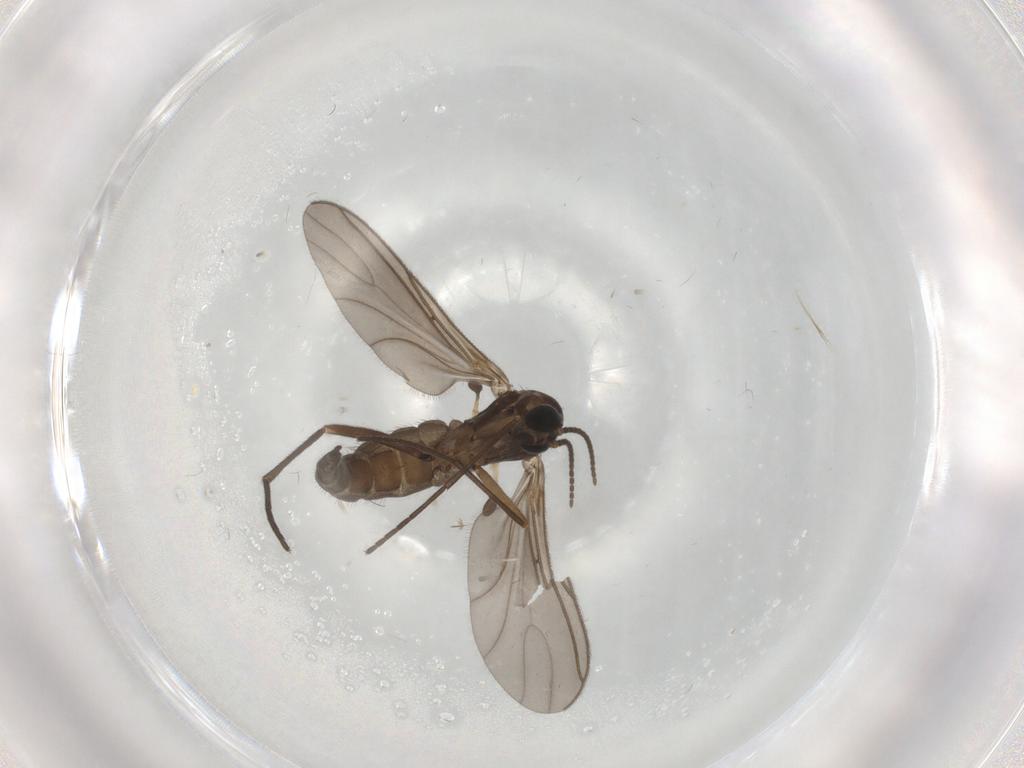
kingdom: Animalia
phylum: Arthropoda
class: Insecta
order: Diptera
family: Sciaridae
